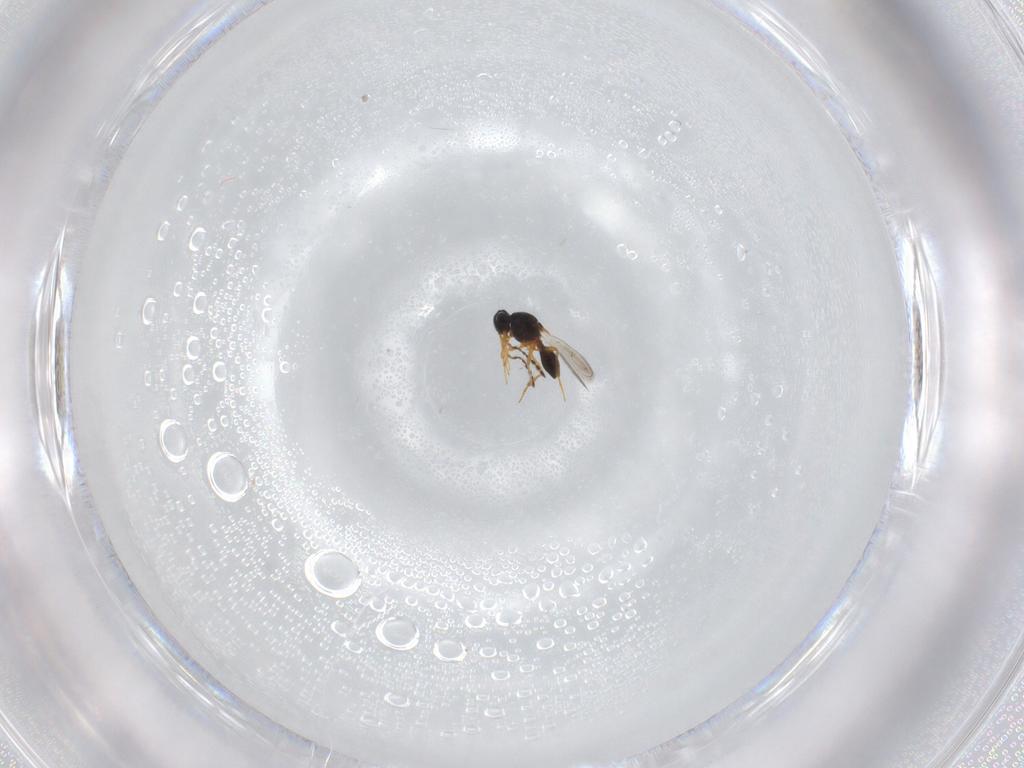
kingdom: Animalia
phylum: Arthropoda
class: Insecta
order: Hymenoptera
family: Platygastridae
